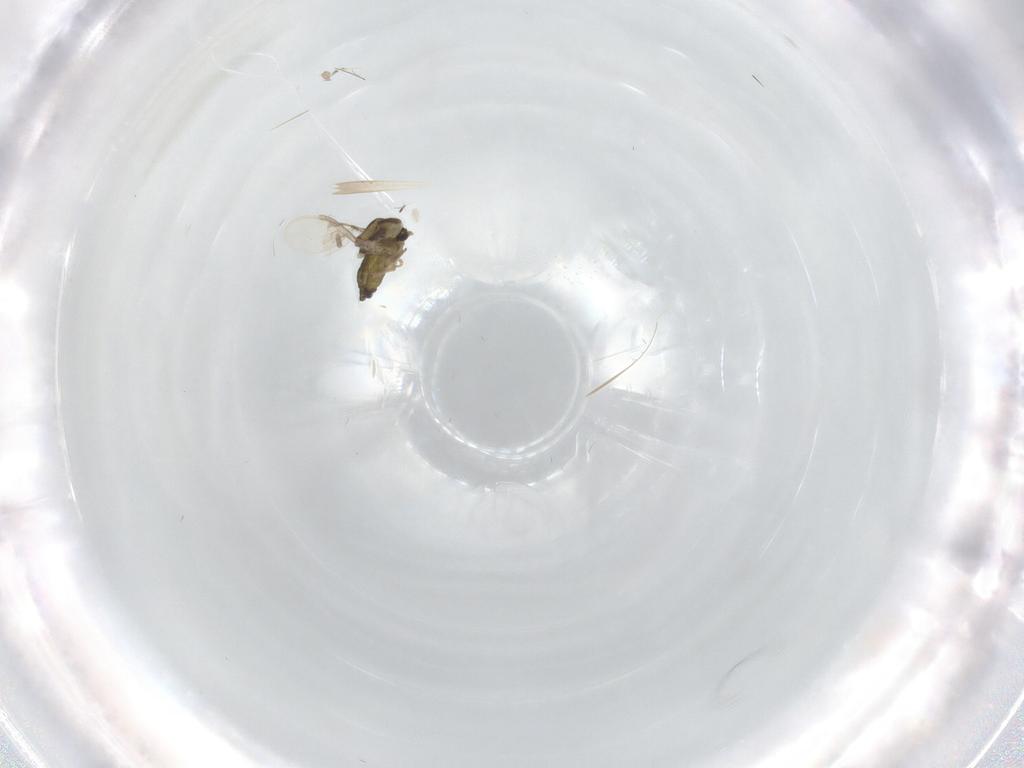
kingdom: Animalia
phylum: Arthropoda
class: Insecta
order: Diptera
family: Chironomidae
